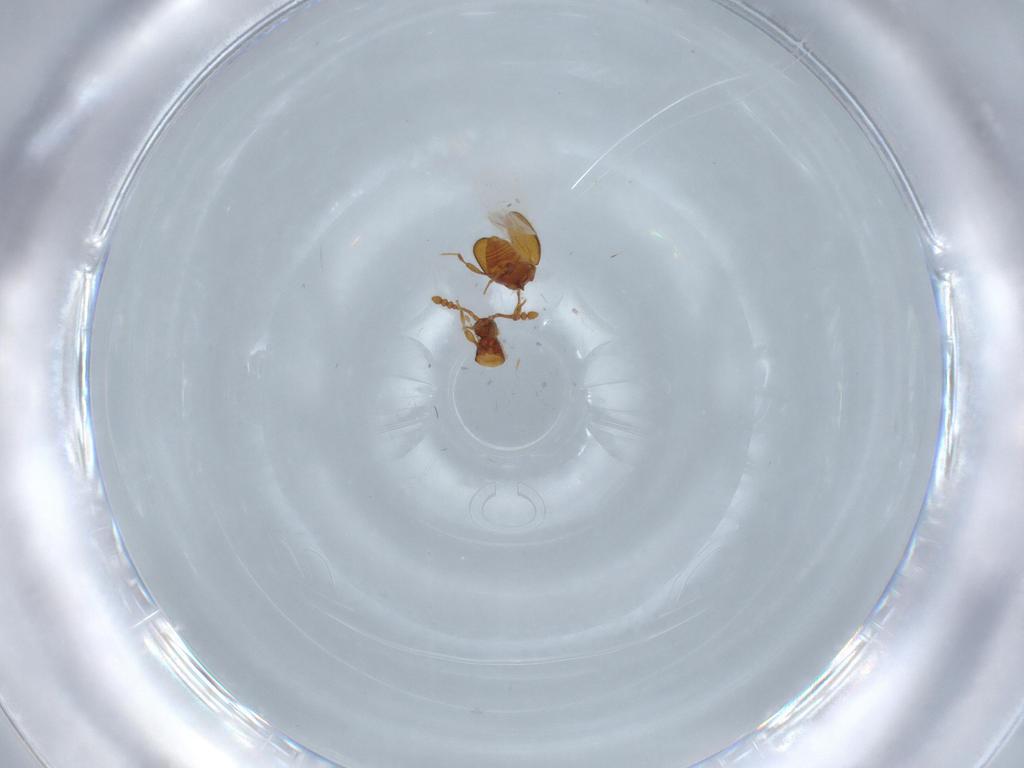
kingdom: Animalia
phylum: Arthropoda
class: Insecta
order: Coleoptera
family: Staphylinidae
